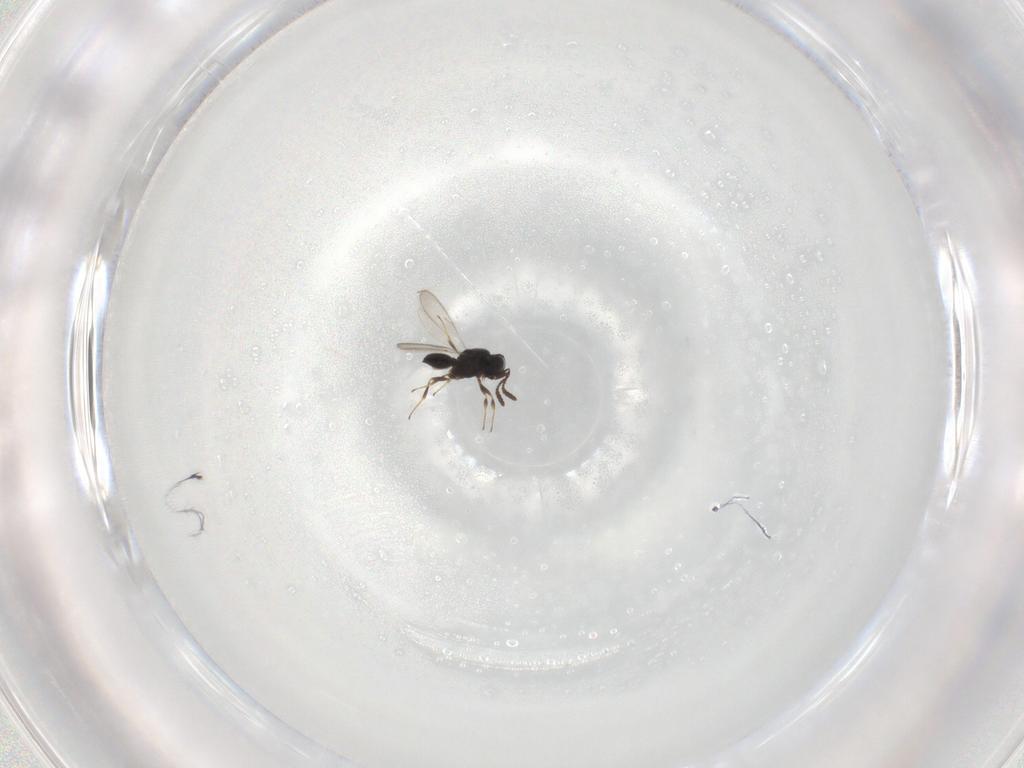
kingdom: Animalia
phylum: Arthropoda
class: Insecta
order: Hymenoptera
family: Scelionidae
